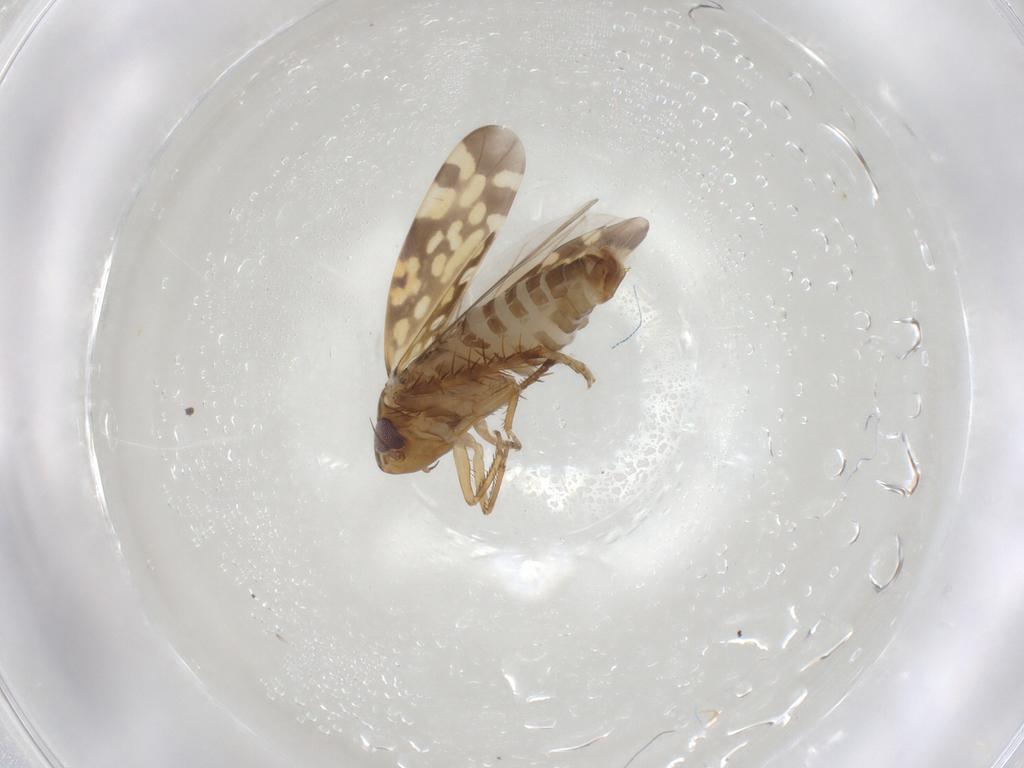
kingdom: Animalia
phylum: Arthropoda
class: Insecta
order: Hemiptera
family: Cicadellidae
